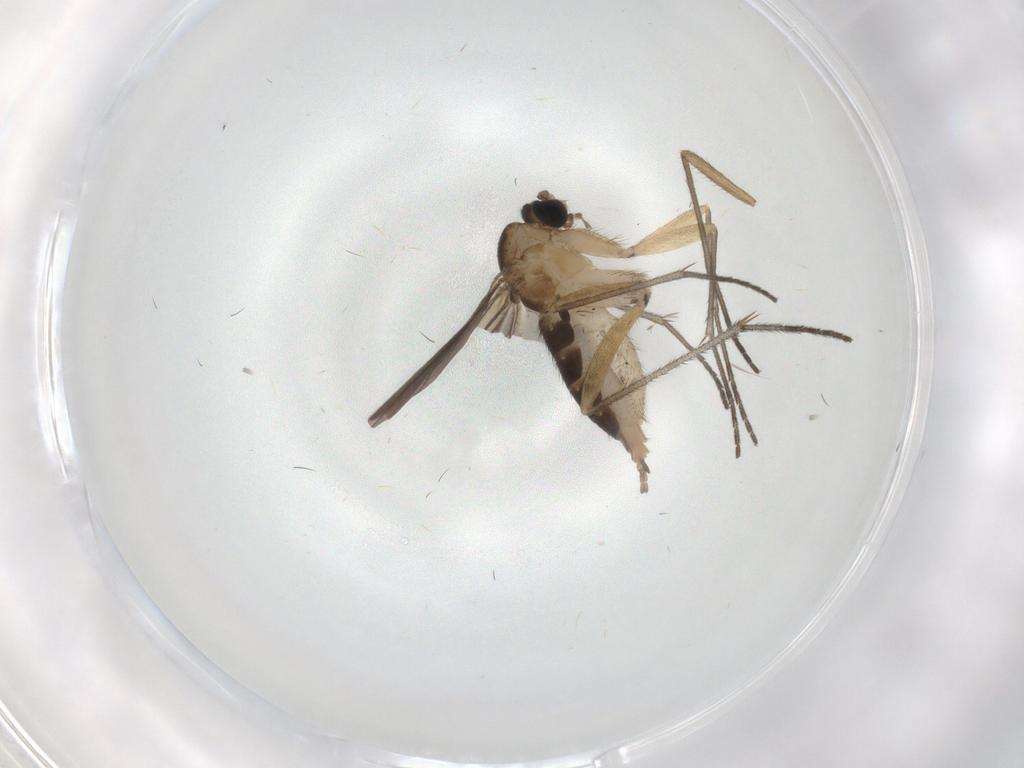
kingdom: Animalia
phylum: Arthropoda
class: Insecta
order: Diptera
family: Sciaridae
